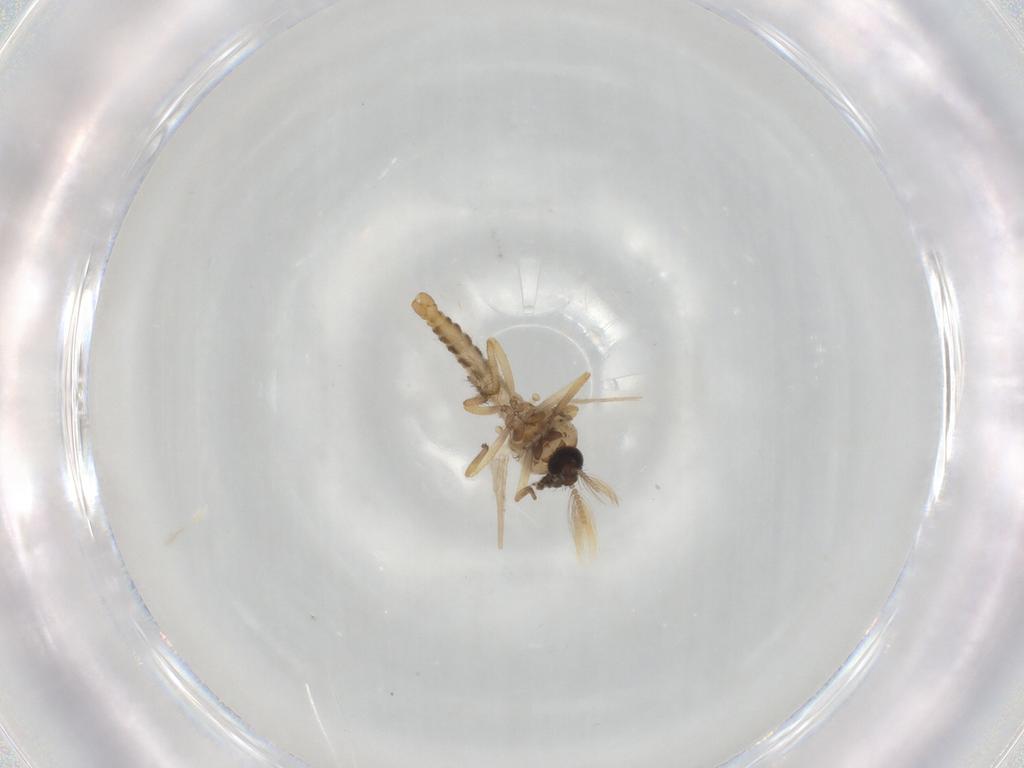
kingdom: Animalia
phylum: Arthropoda
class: Insecta
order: Diptera
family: Ceratopogonidae
